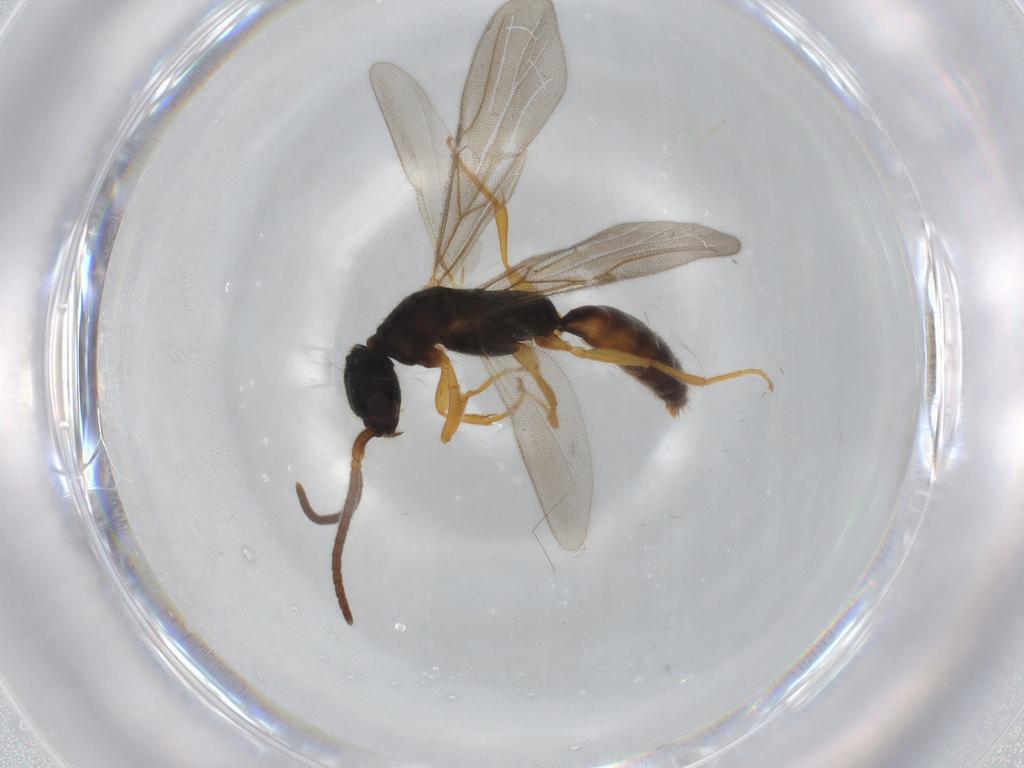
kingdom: Animalia
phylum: Arthropoda
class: Insecta
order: Hymenoptera
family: Bethylidae
